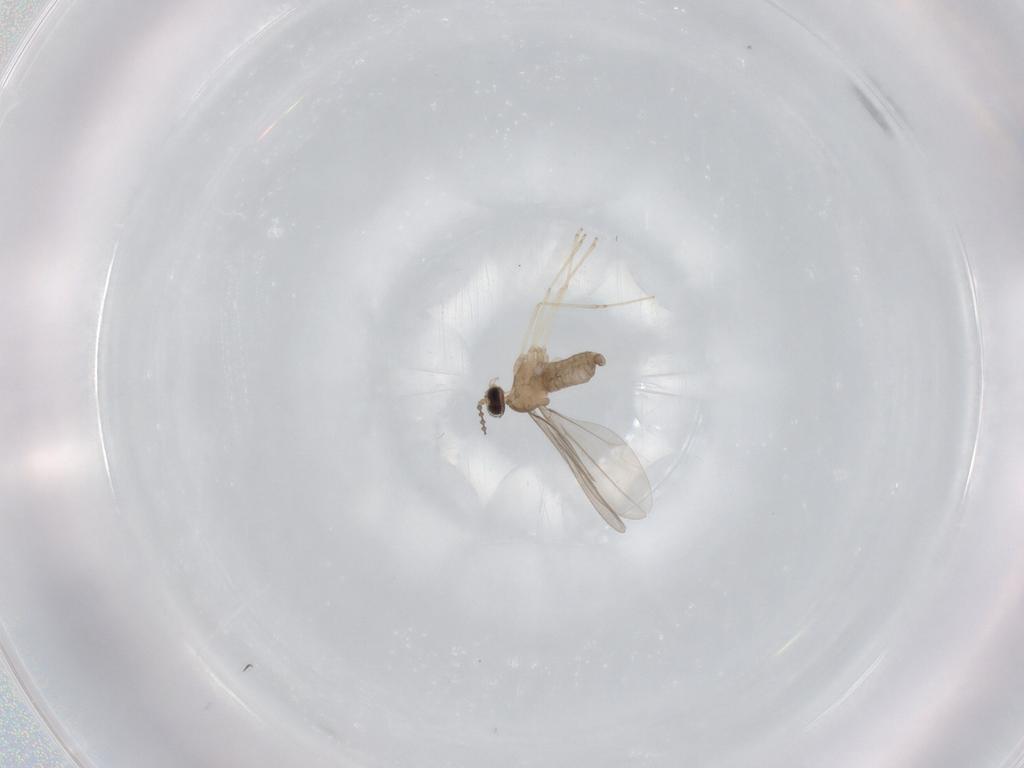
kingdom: Animalia
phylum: Arthropoda
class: Insecta
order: Diptera
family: Cecidomyiidae
